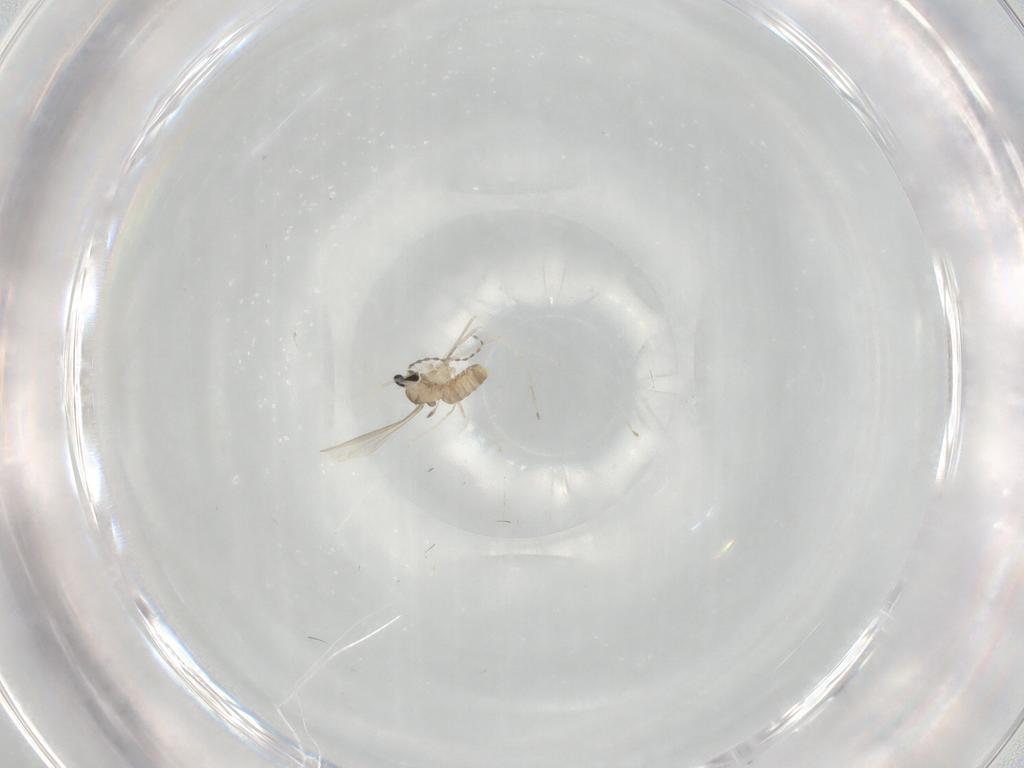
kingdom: Animalia
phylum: Arthropoda
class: Insecta
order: Diptera
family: Cecidomyiidae
